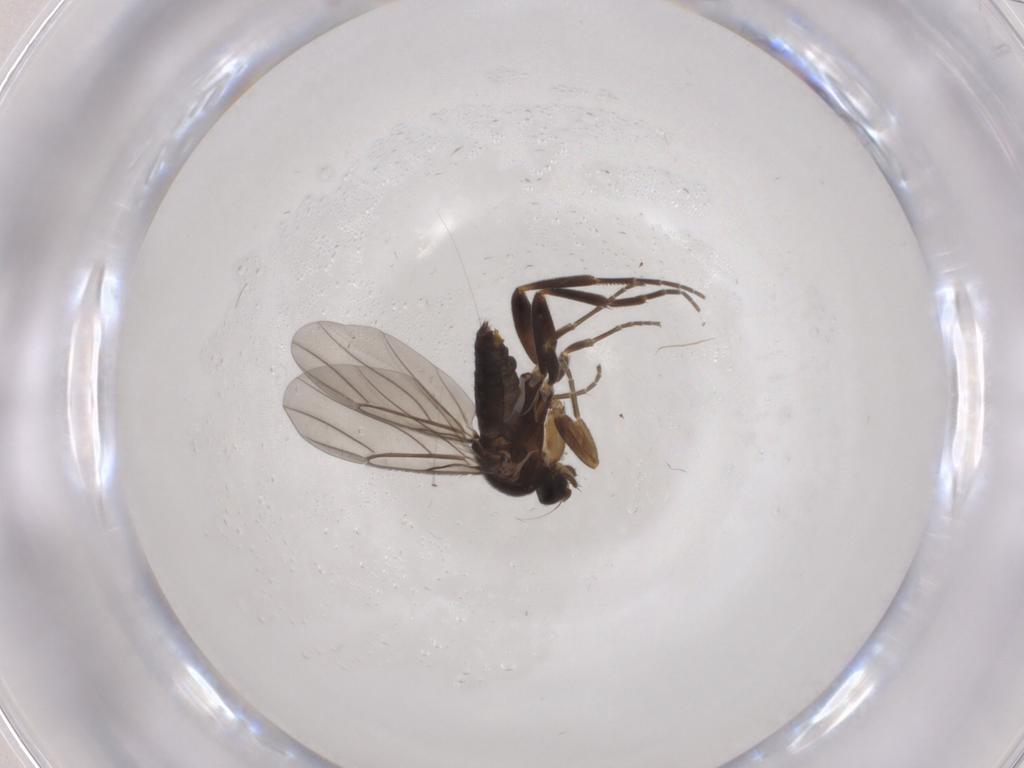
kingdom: Animalia
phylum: Arthropoda
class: Insecta
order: Diptera
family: Phoridae
